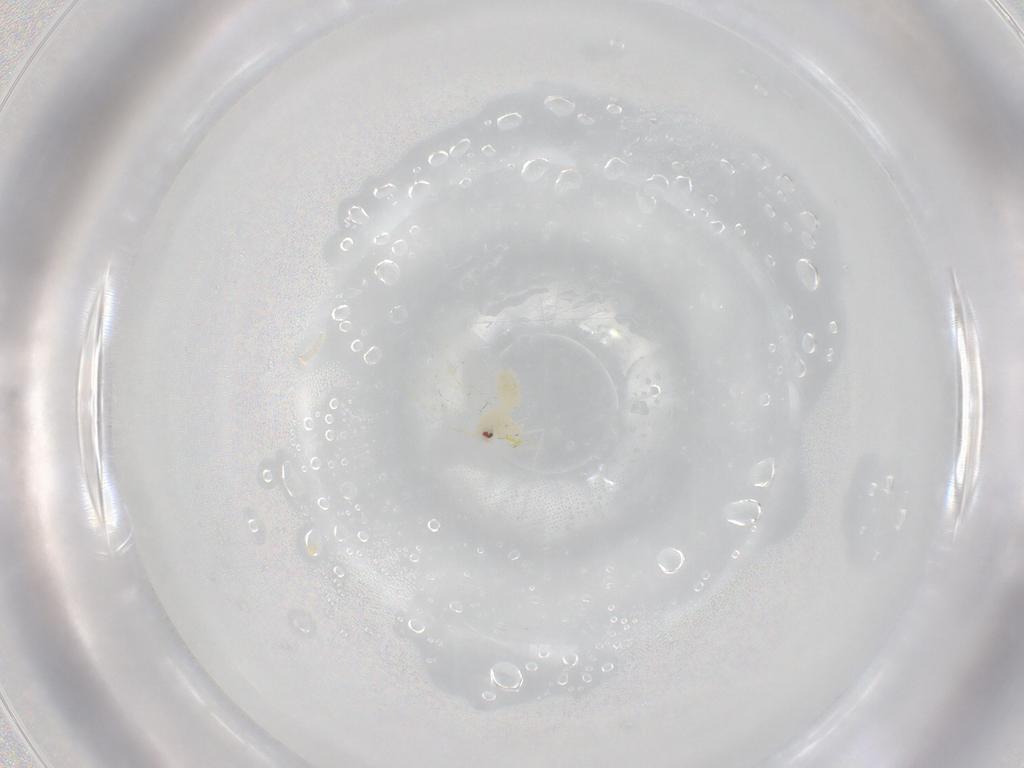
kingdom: Animalia
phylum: Arthropoda
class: Insecta
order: Hemiptera
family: Aleyrodidae
